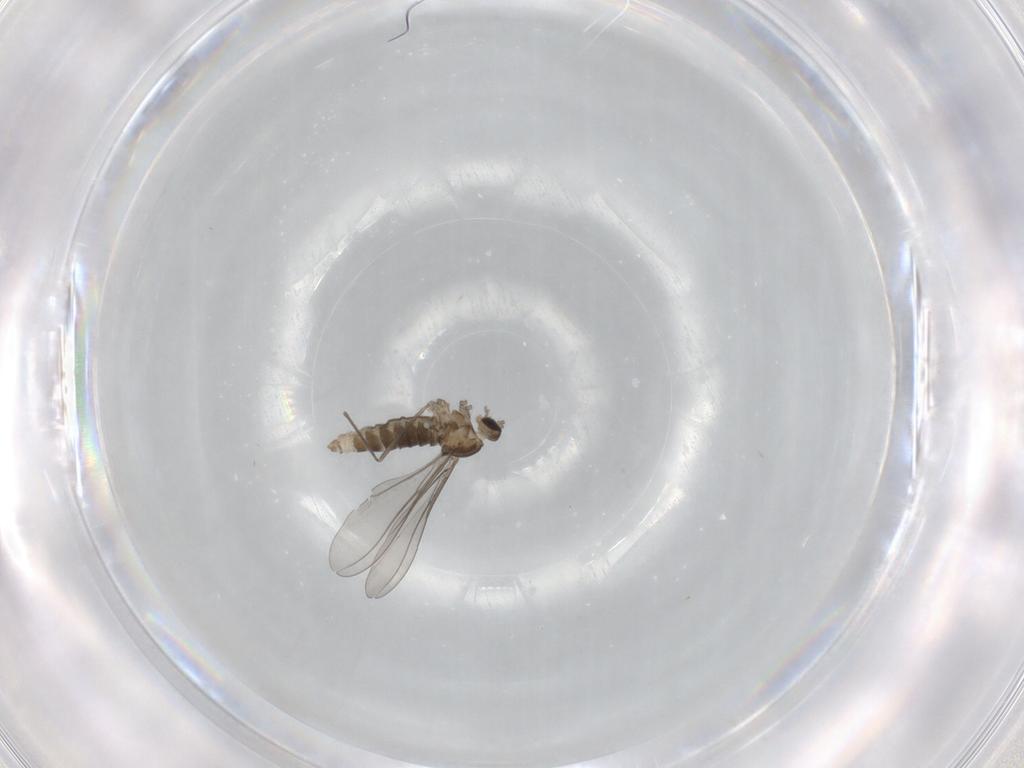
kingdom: Animalia
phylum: Arthropoda
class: Insecta
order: Diptera
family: Cecidomyiidae
